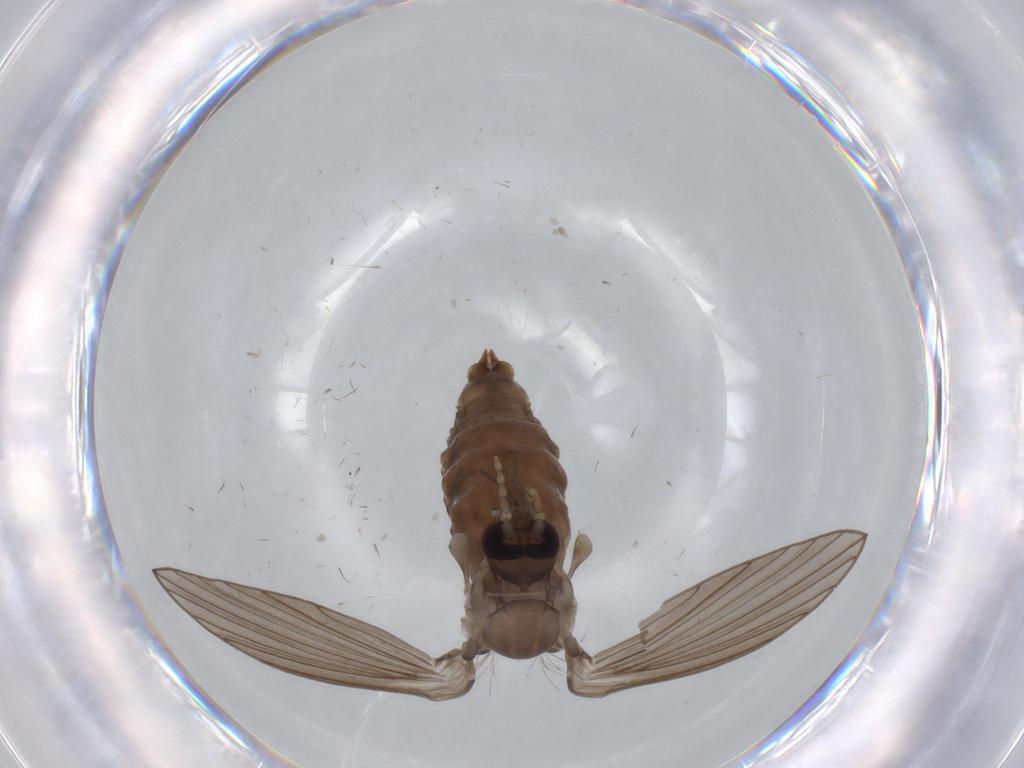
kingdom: Animalia
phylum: Arthropoda
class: Insecta
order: Diptera
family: Psychodidae
